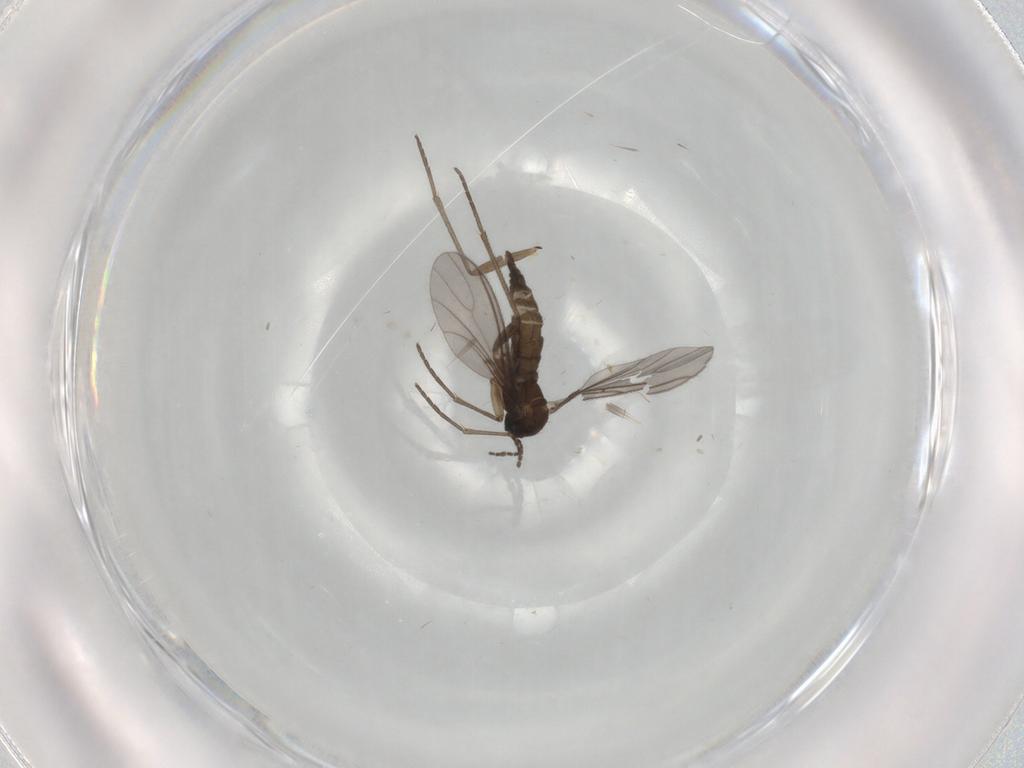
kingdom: Animalia
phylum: Arthropoda
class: Insecta
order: Diptera
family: Sciaridae
